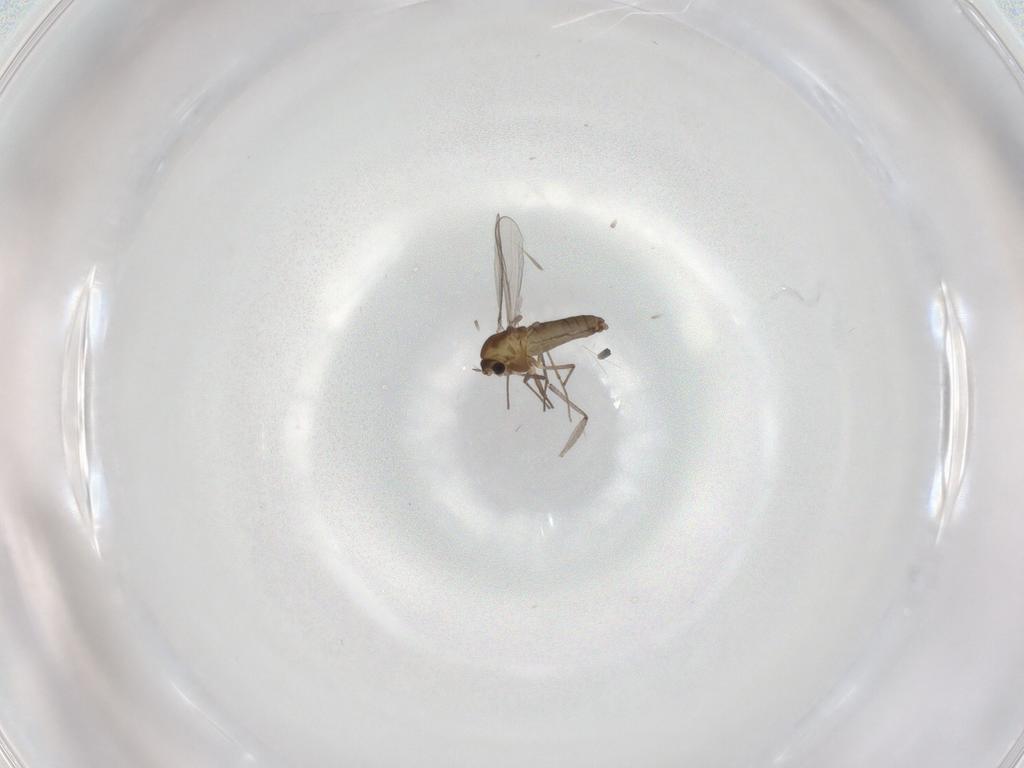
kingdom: Animalia
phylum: Arthropoda
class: Insecta
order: Diptera
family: Chironomidae
